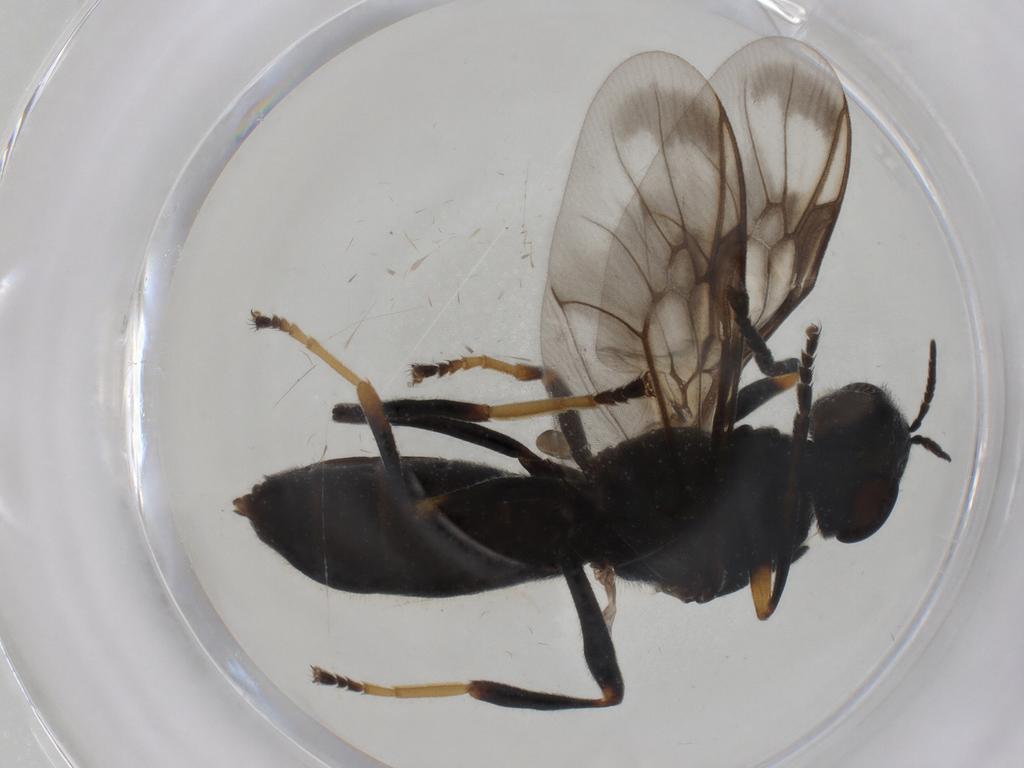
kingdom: Animalia
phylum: Arthropoda
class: Insecta
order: Diptera
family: Stratiomyidae
